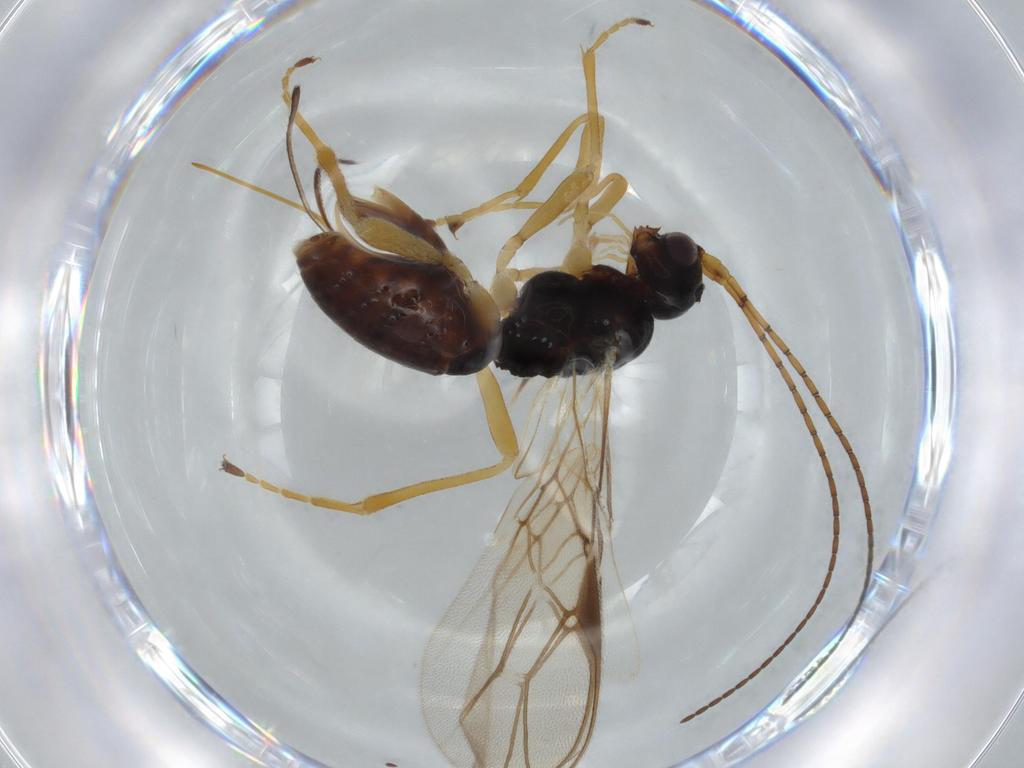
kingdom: Animalia
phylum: Arthropoda
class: Insecta
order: Hymenoptera
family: Braconidae
